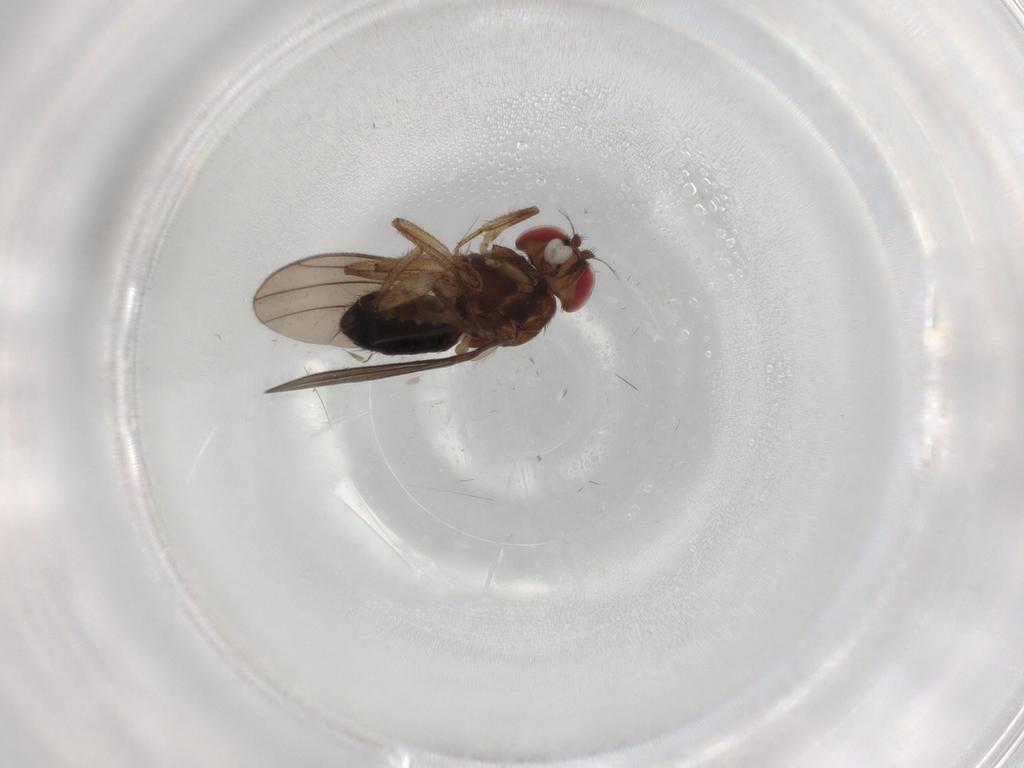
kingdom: Animalia
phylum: Arthropoda
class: Insecta
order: Diptera
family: Drosophilidae
